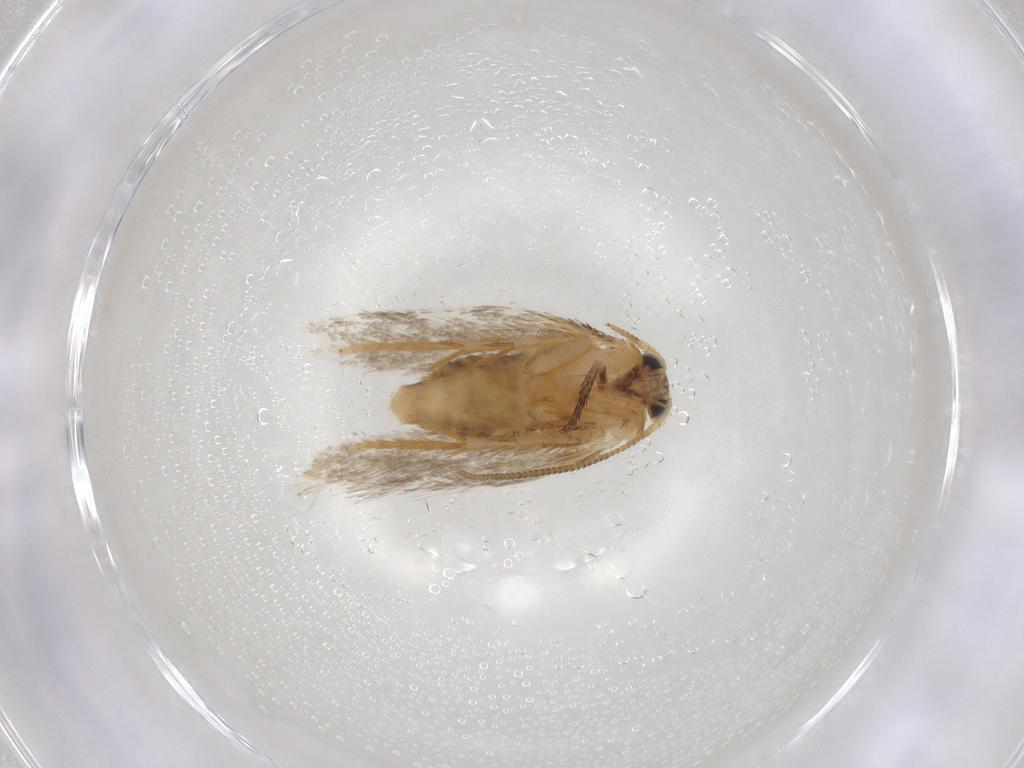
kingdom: Animalia
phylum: Arthropoda
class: Insecta
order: Lepidoptera
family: Nepticulidae
